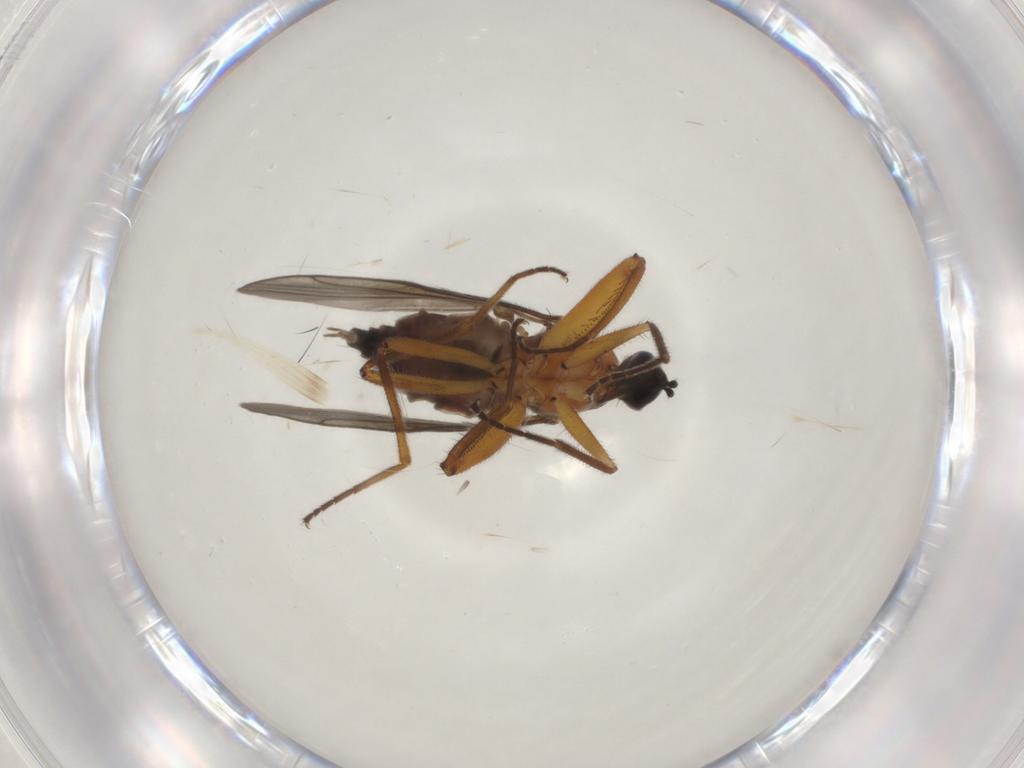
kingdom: Animalia
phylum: Arthropoda
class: Insecta
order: Diptera
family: Hybotidae
